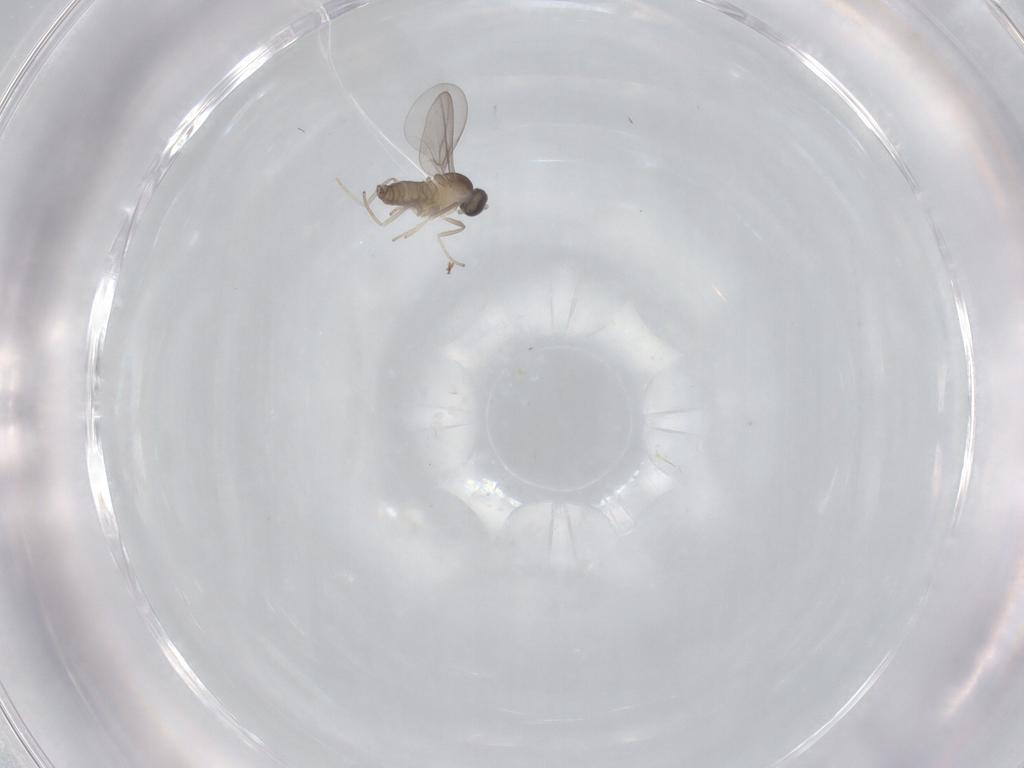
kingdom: Animalia
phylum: Arthropoda
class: Insecta
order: Diptera
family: Cecidomyiidae
